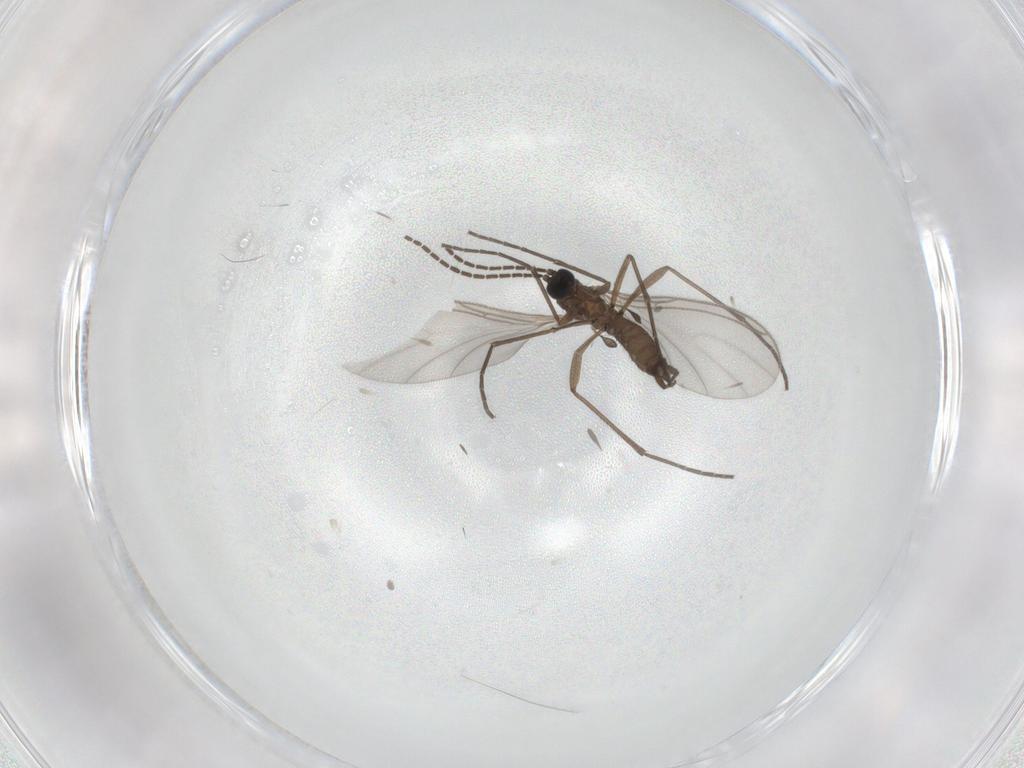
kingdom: Animalia
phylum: Arthropoda
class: Insecta
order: Diptera
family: Sciaridae
